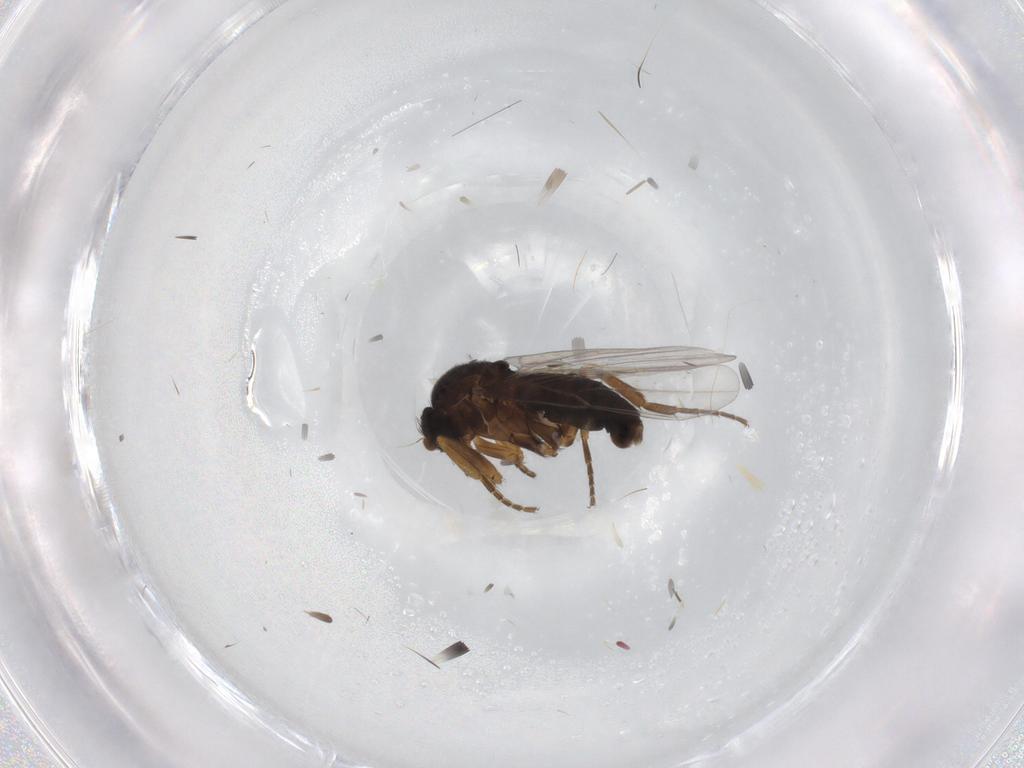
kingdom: Animalia
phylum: Arthropoda
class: Insecta
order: Diptera
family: Sciaridae
